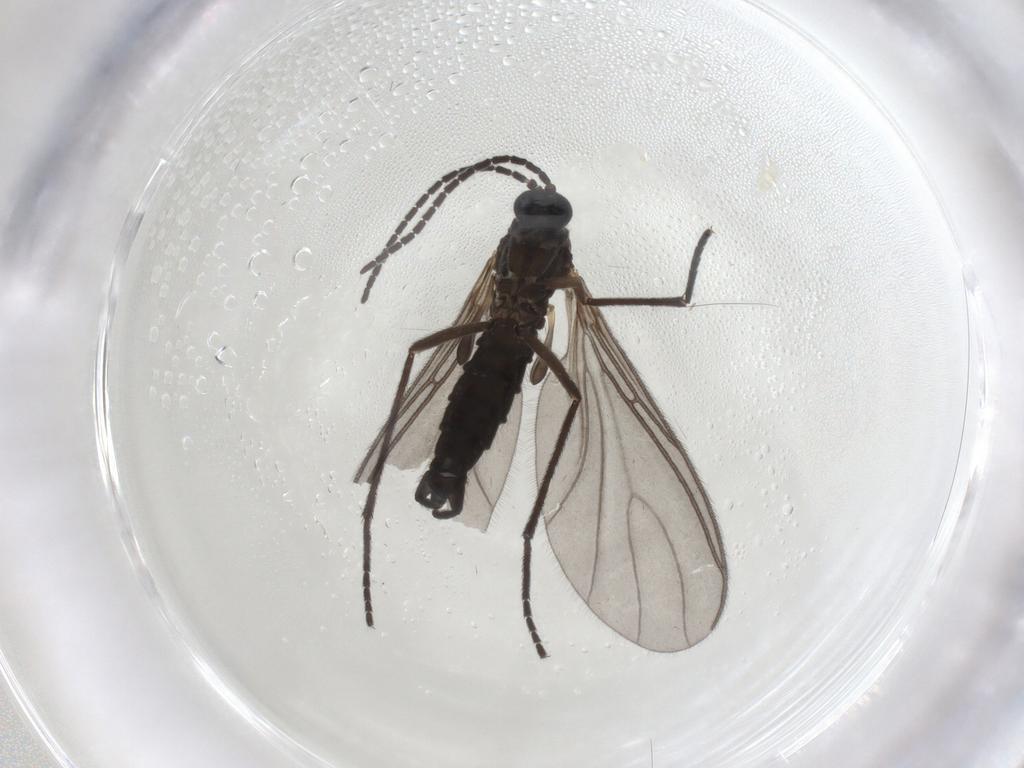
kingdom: Animalia
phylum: Arthropoda
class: Insecta
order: Diptera
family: Sciaridae
